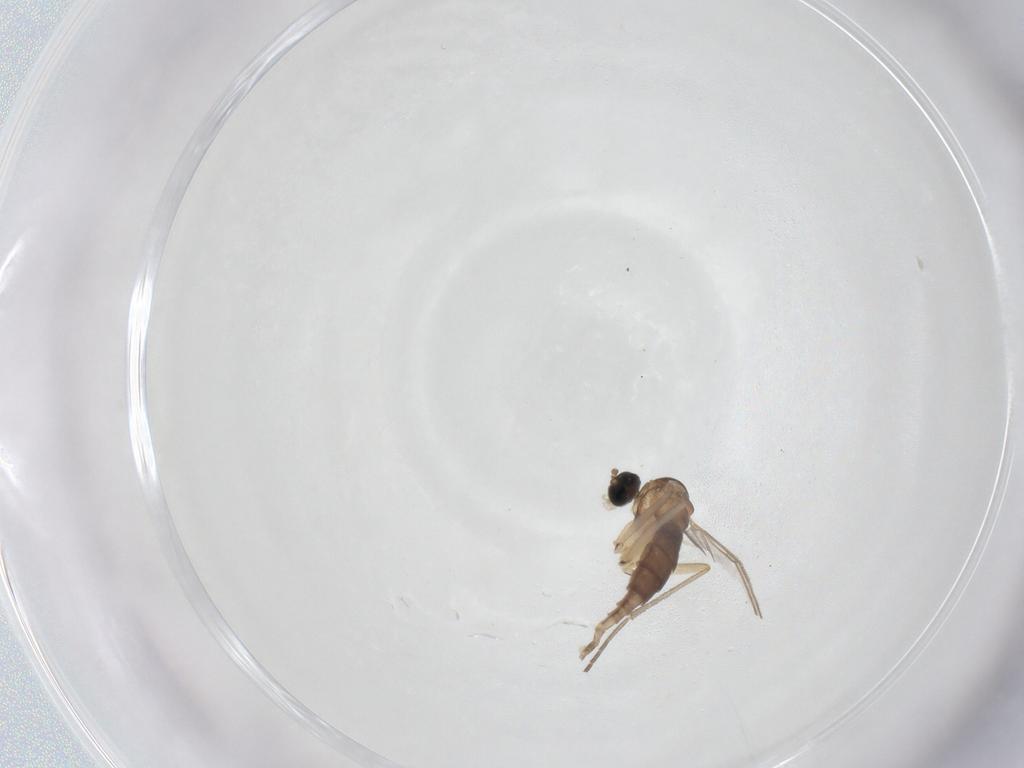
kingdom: Animalia
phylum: Arthropoda
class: Insecta
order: Diptera
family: Sciaridae
